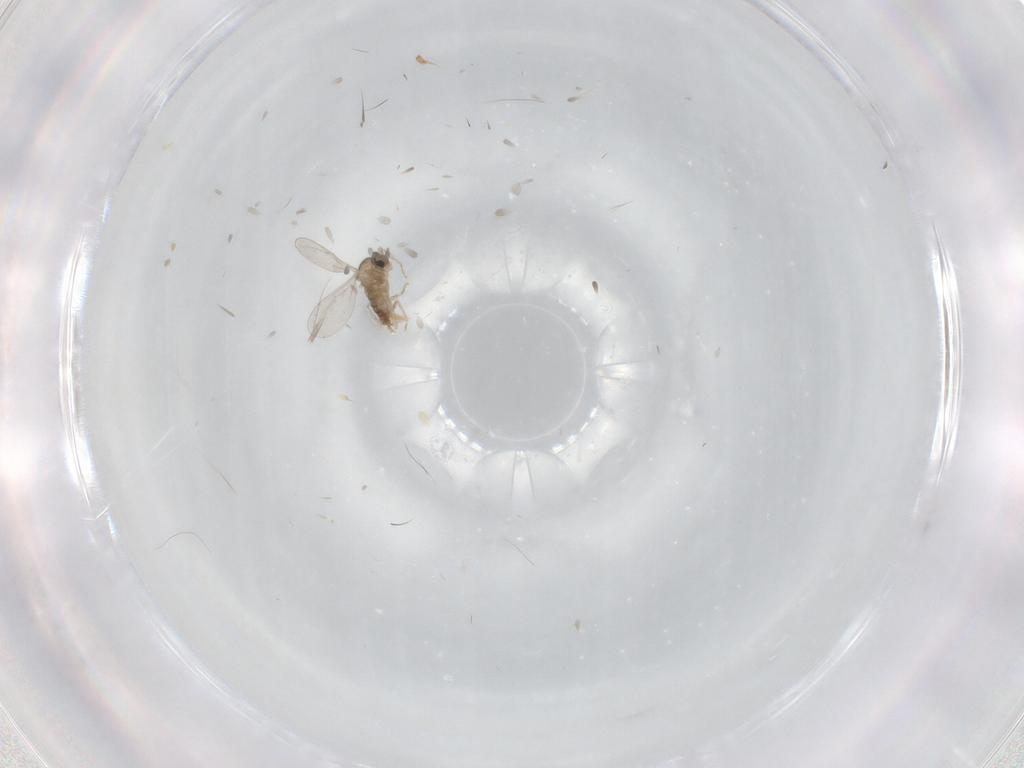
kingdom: Animalia
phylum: Arthropoda
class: Insecta
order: Diptera
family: Cecidomyiidae
